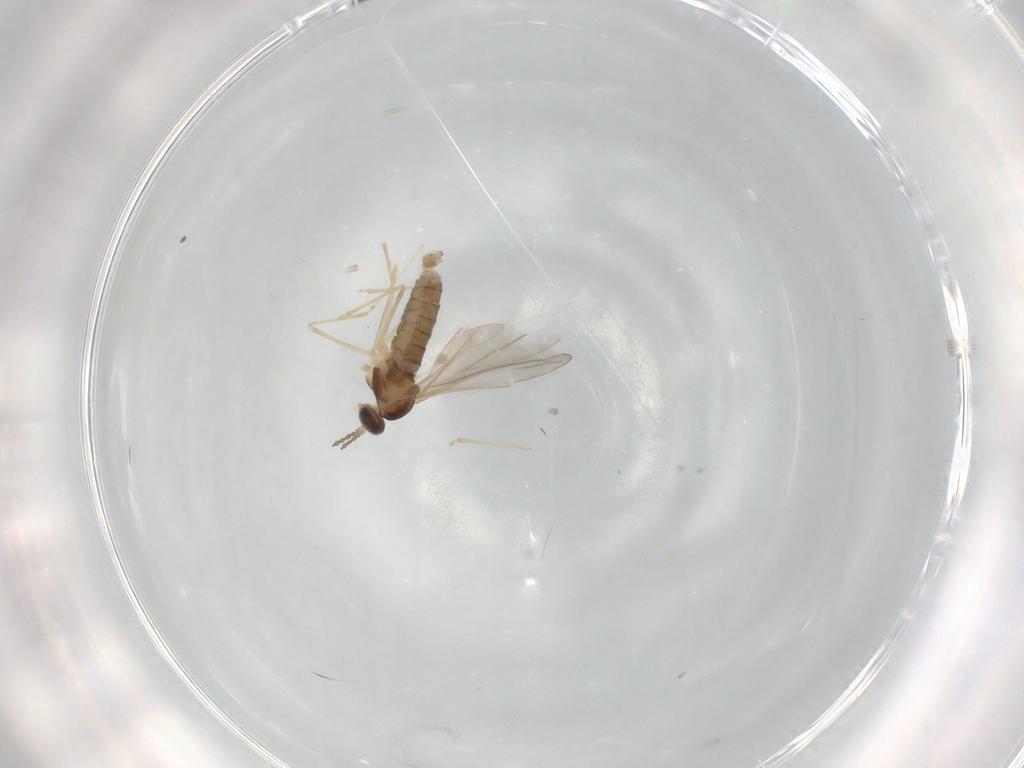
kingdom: Animalia
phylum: Arthropoda
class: Insecta
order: Diptera
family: Cecidomyiidae
